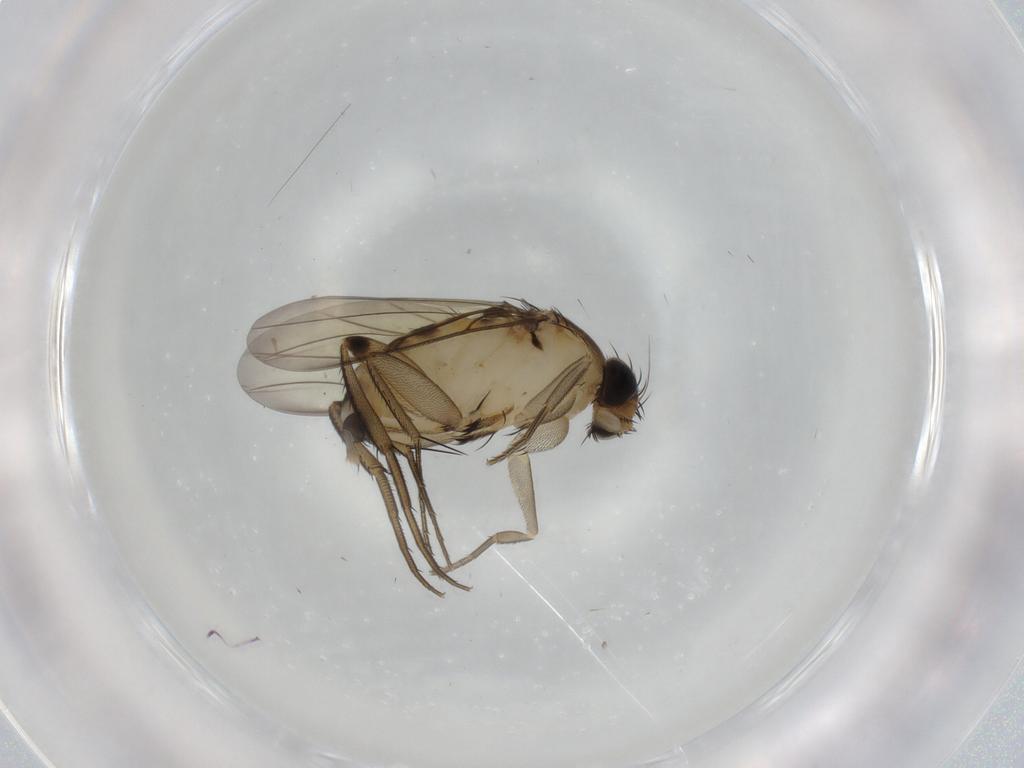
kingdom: Animalia
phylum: Arthropoda
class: Insecta
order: Diptera
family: Phoridae
